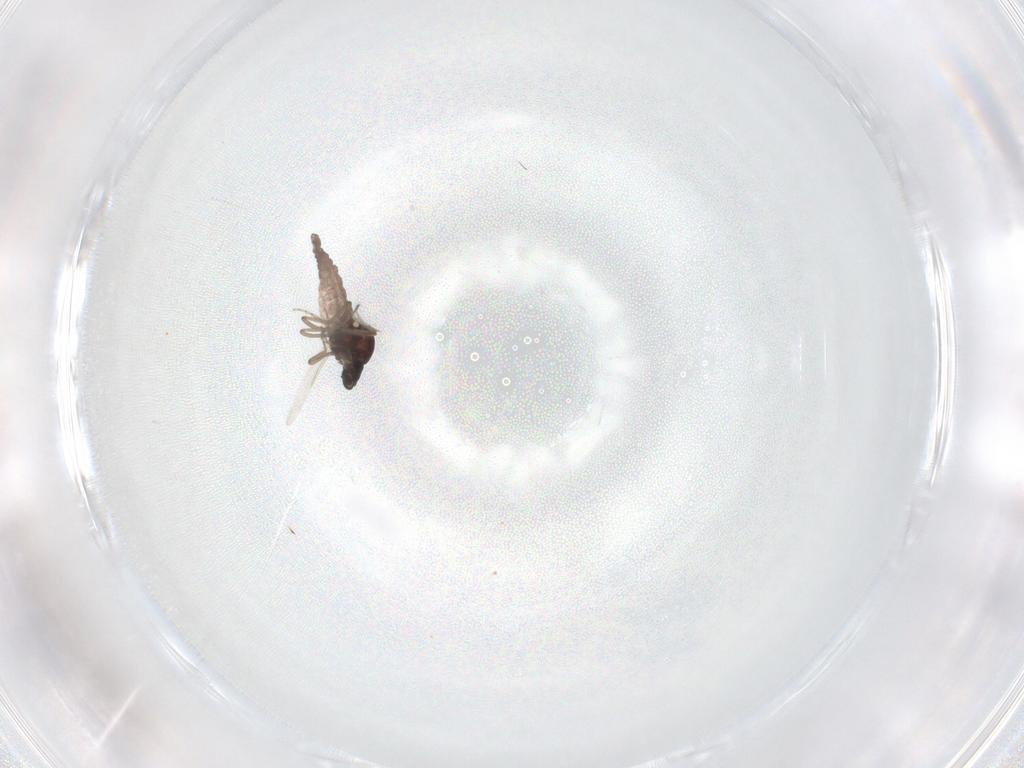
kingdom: Animalia
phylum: Arthropoda
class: Insecta
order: Diptera
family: Ceratopogonidae
